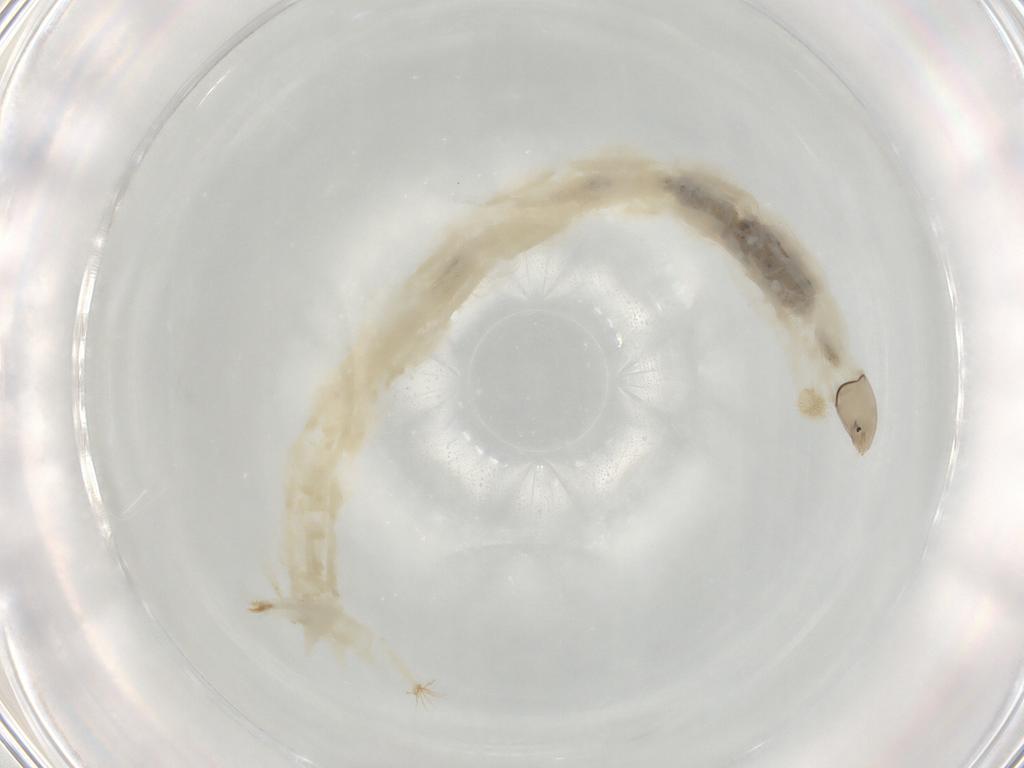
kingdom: Animalia
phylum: Arthropoda
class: Insecta
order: Diptera
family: Chironomidae
